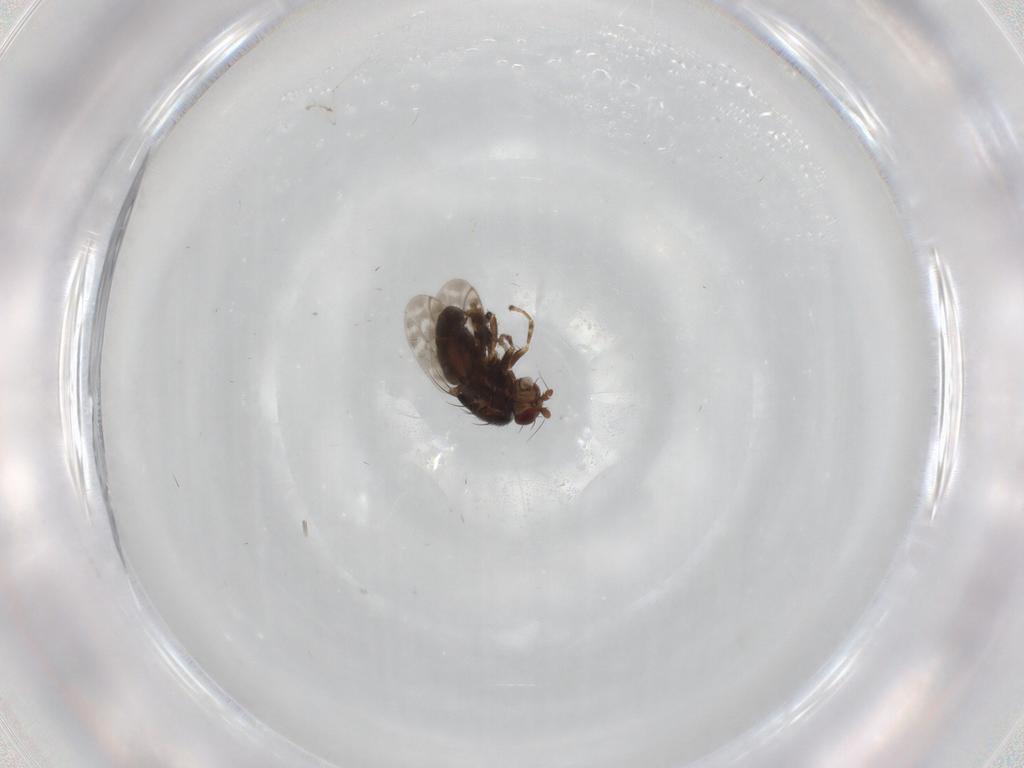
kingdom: Animalia
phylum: Arthropoda
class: Insecta
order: Diptera
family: Sphaeroceridae
